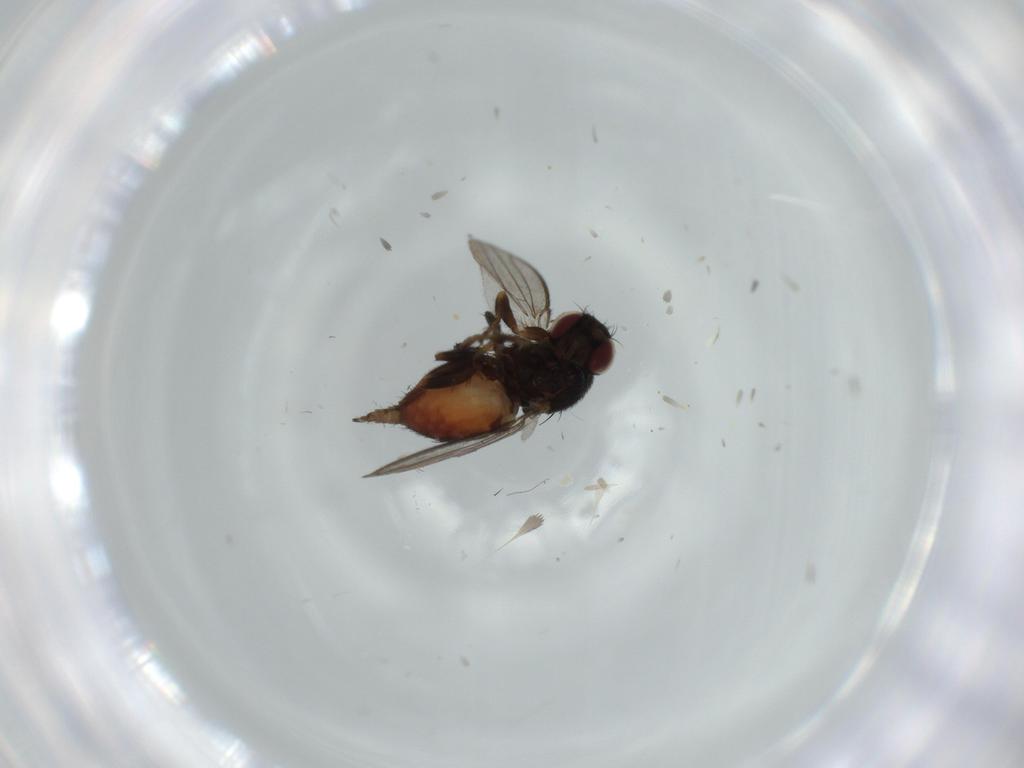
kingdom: Animalia
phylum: Arthropoda
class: Insecta
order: Diptera
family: Milichiidae
